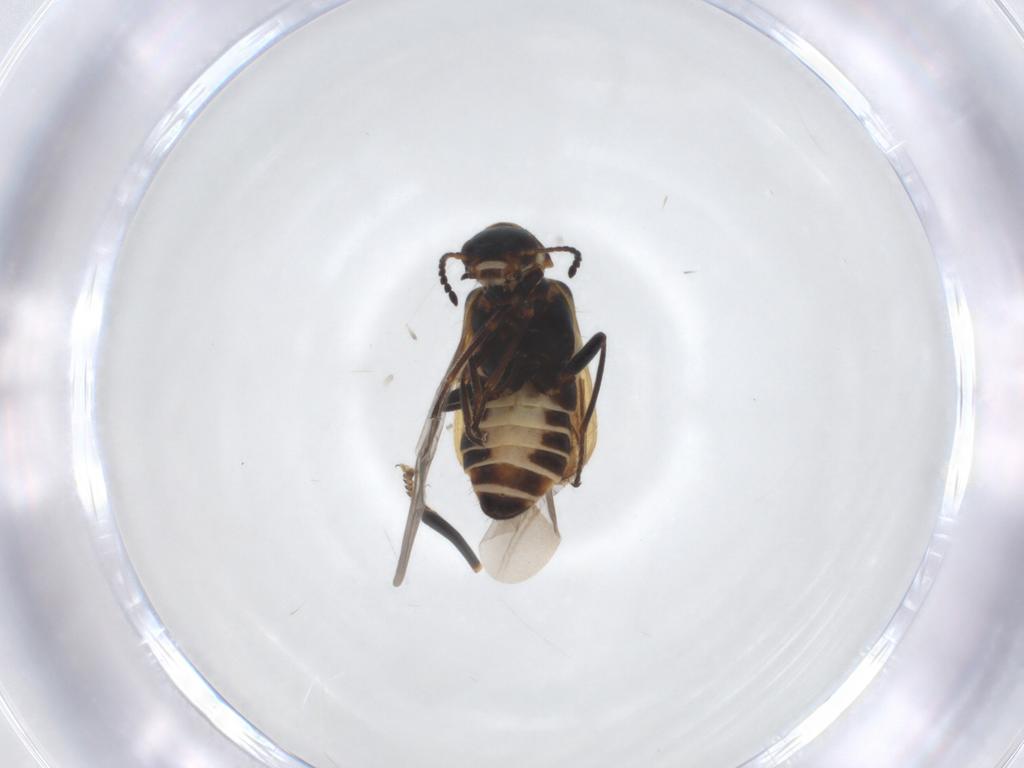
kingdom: Animalia
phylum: Arthropoda
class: Insecta
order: Coleoptera
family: Melyridae
